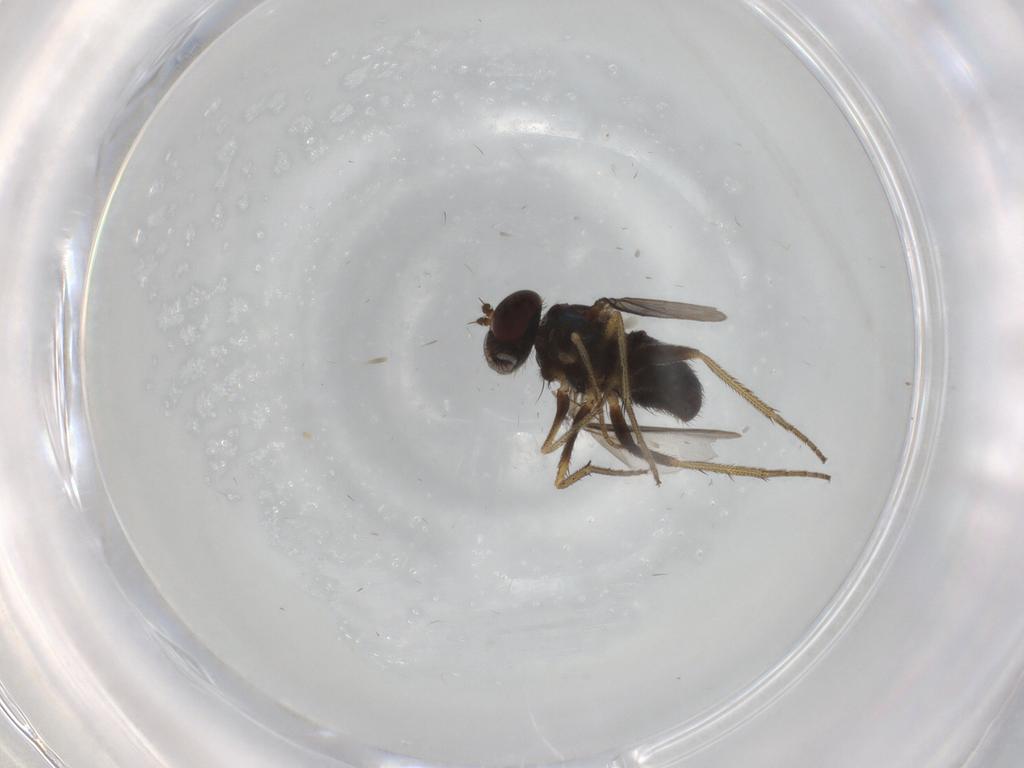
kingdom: Animalia
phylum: Arthropoda
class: Insecta
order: Diptera
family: Chironomidae
